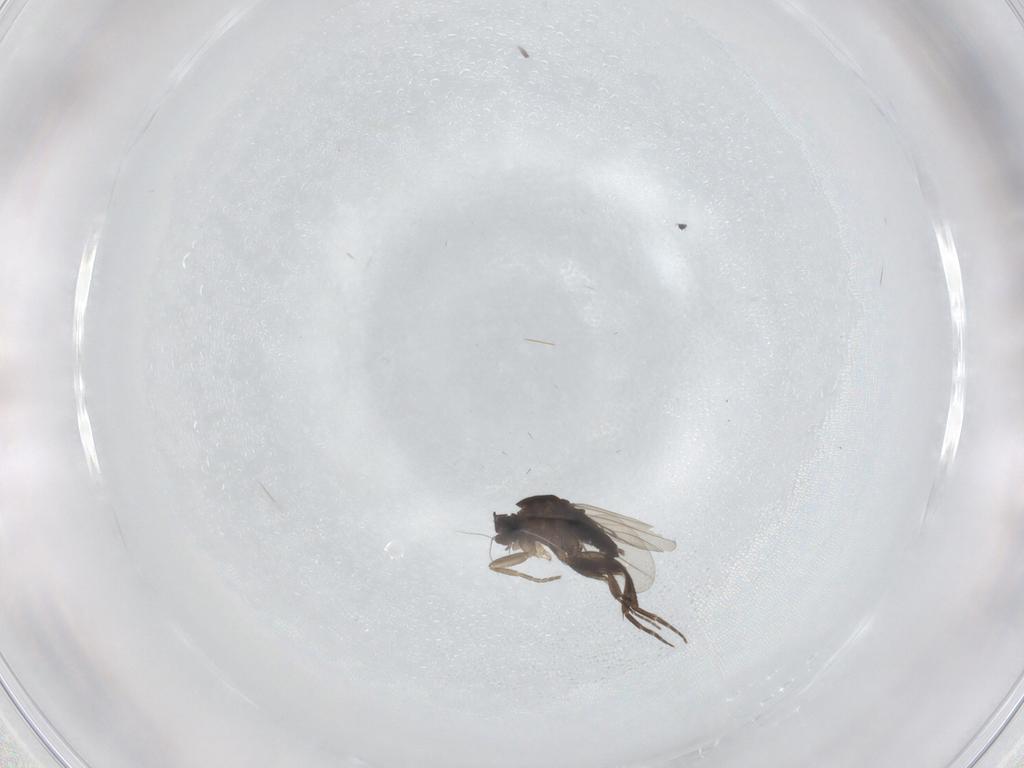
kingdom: Animalia
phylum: Arthropoda
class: Insecta
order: Diptera
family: Phoridae
